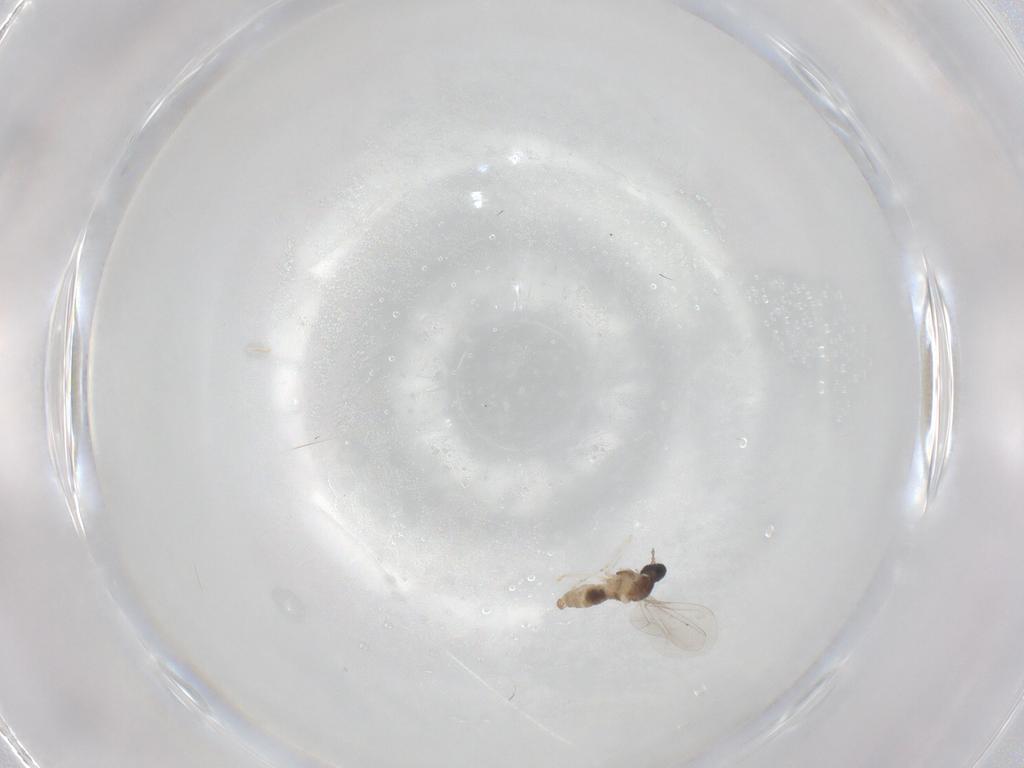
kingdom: Animalia
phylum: Arthropoda
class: Insecta
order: Diptera
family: Cecidomyiidae
